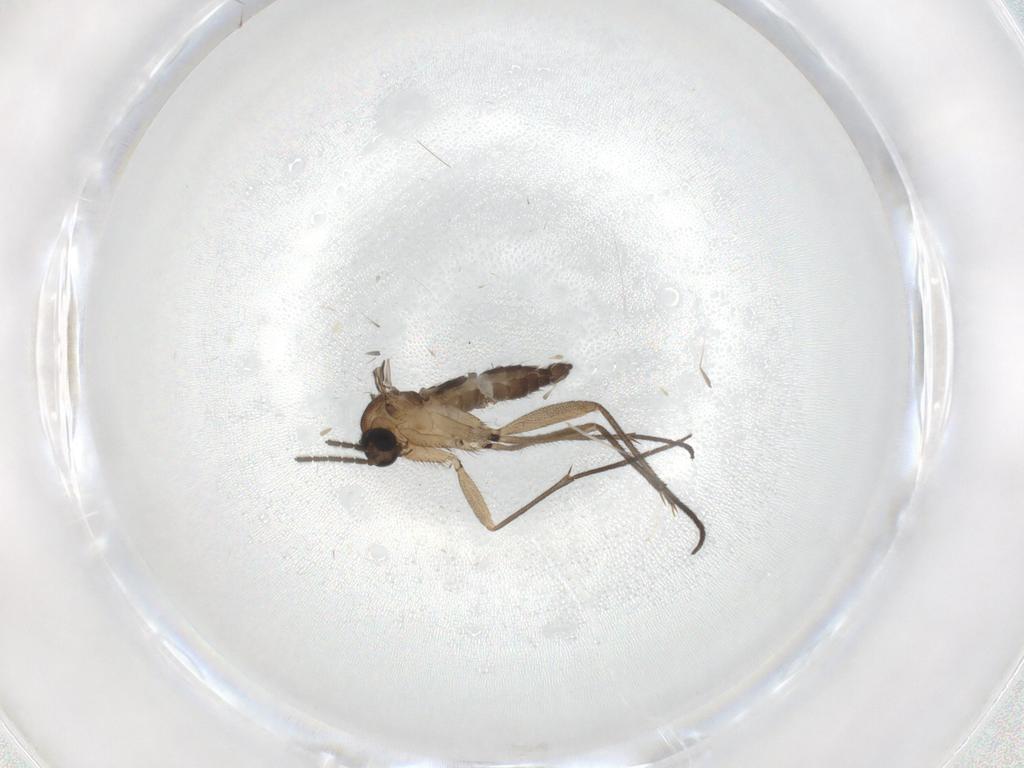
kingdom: Animalia
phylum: Arthropoda
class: Insecta
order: Diptera
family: Cecidomyiidae
